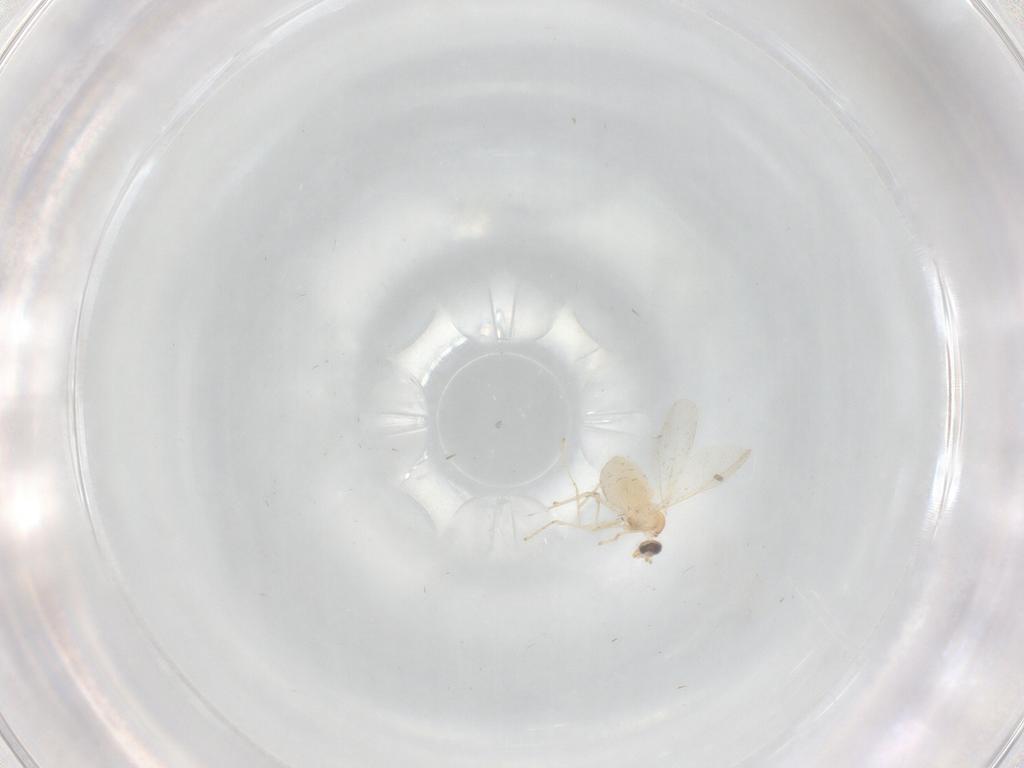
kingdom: Animalia
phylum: Arthropoda
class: Insecta
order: Diptera
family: Cecidomyiidae
